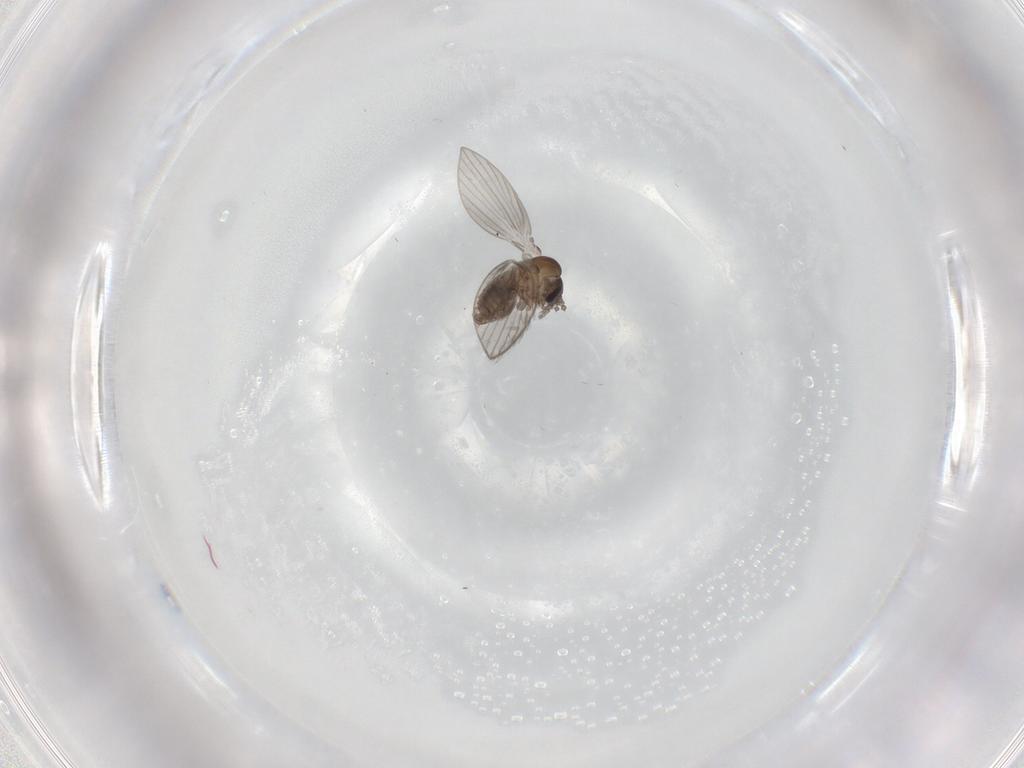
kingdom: Animalia
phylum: Arthropoda
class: Insecta
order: Diptera
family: Psychodidae
